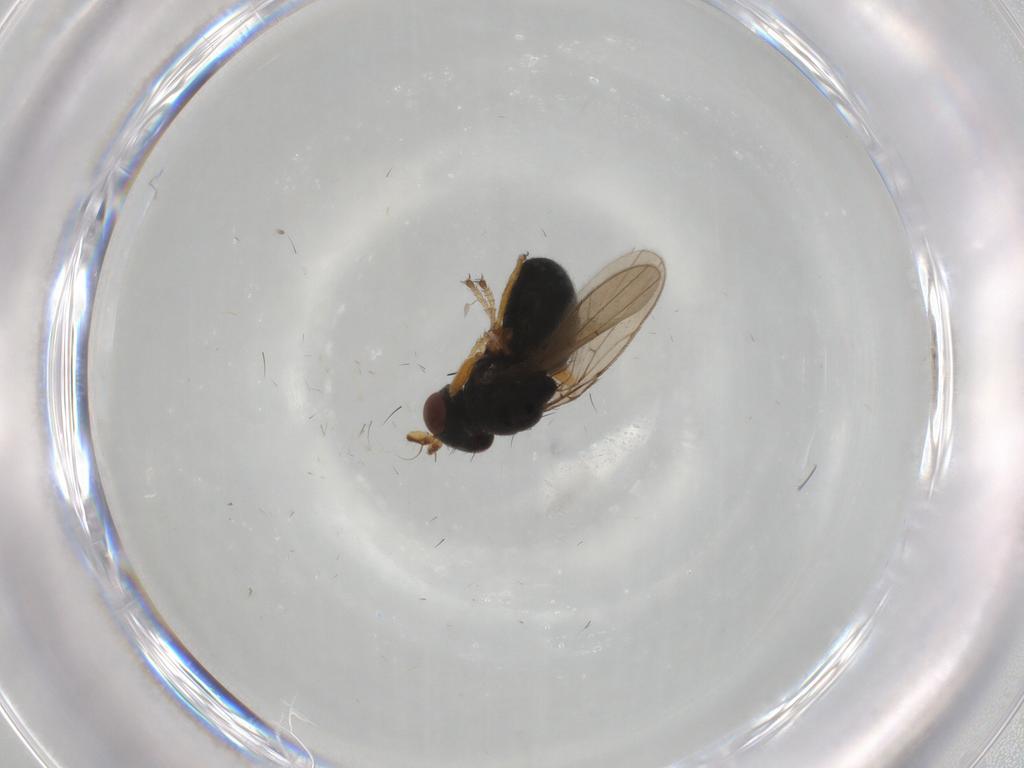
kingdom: Animalia
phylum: Arthropoda
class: Insecta
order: Diptera
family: Ephydridae
